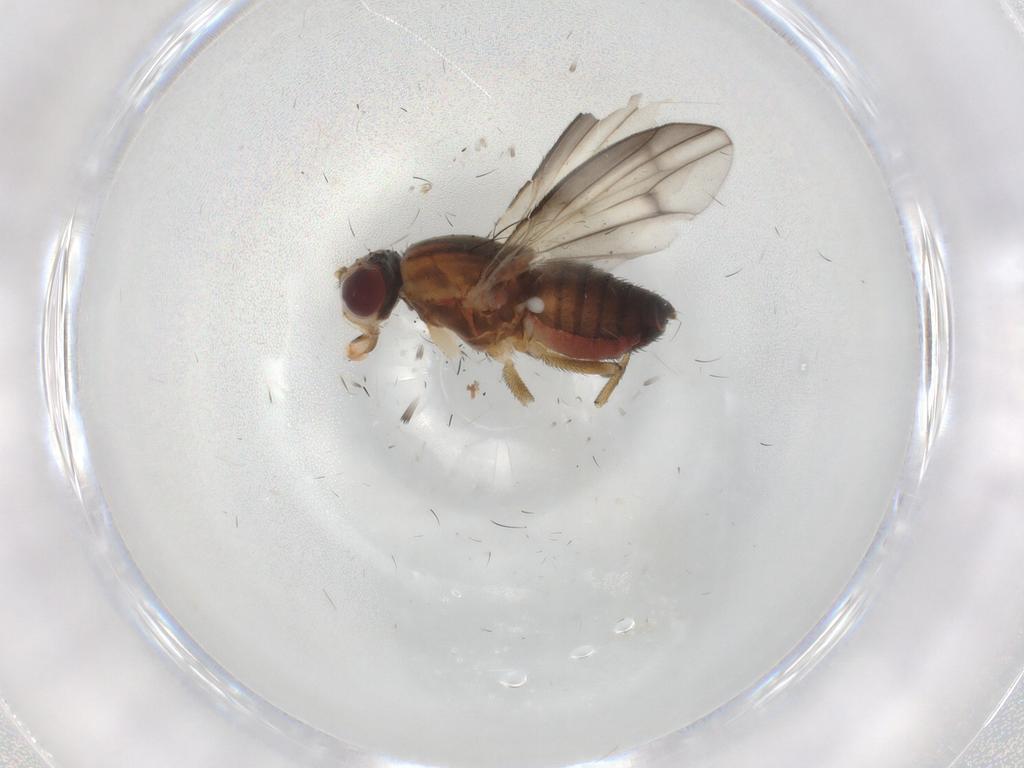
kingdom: Animalia
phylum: Arthropoda
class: Insecta
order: Diptera
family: Heleomyzidae
